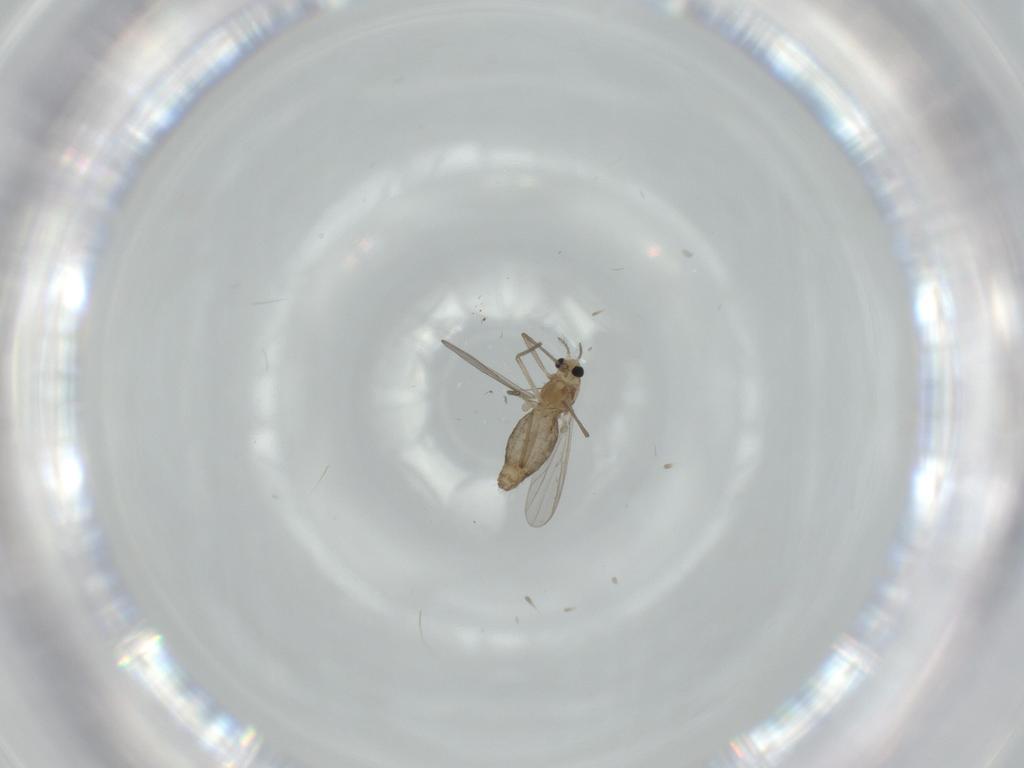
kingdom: Animalia
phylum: Arthropoda
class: Insecta
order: Diptera
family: Chironomidae
